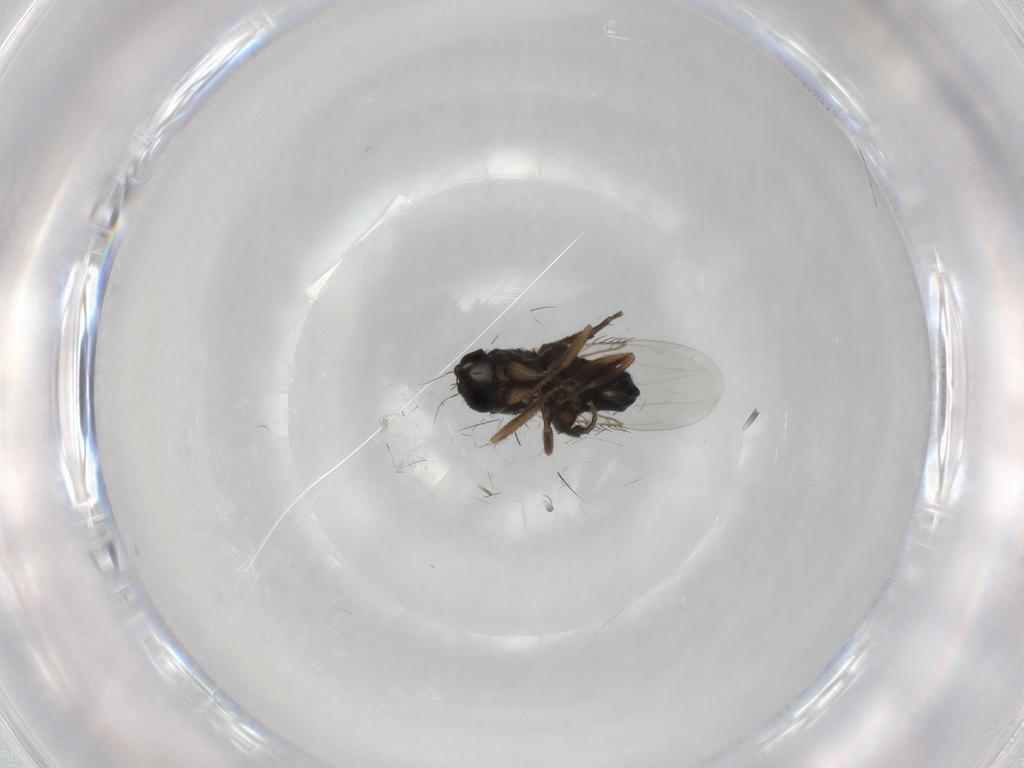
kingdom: Animalia
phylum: Arthropoda
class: Insecta
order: Diptera
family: Phoridae
